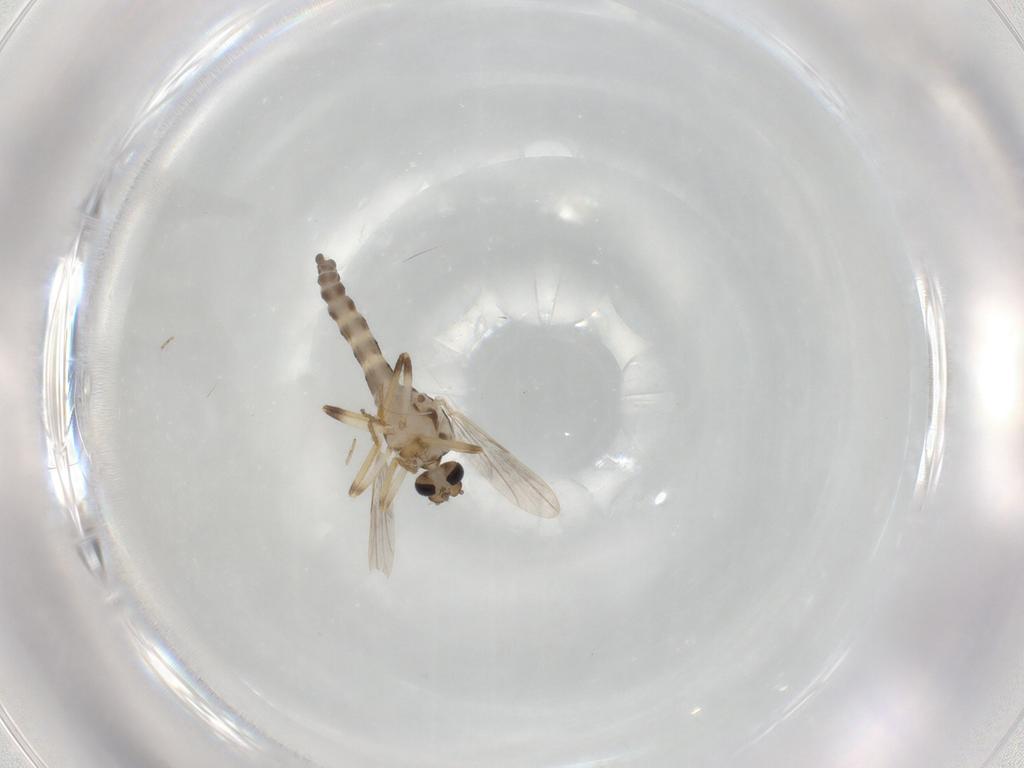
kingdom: Animalia
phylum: Arthropoda
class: Insecta
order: Diptera
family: Ceratopogonidae
